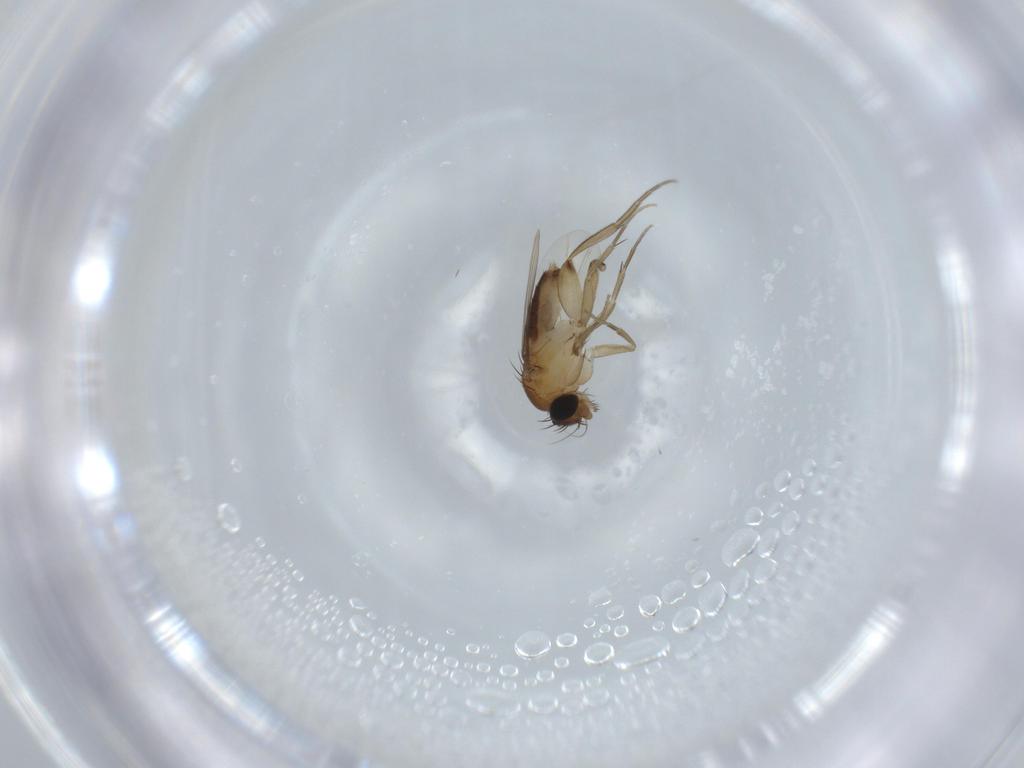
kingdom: Animalia
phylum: Arthropoda
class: Insecta
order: Diptera
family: Phoridae
